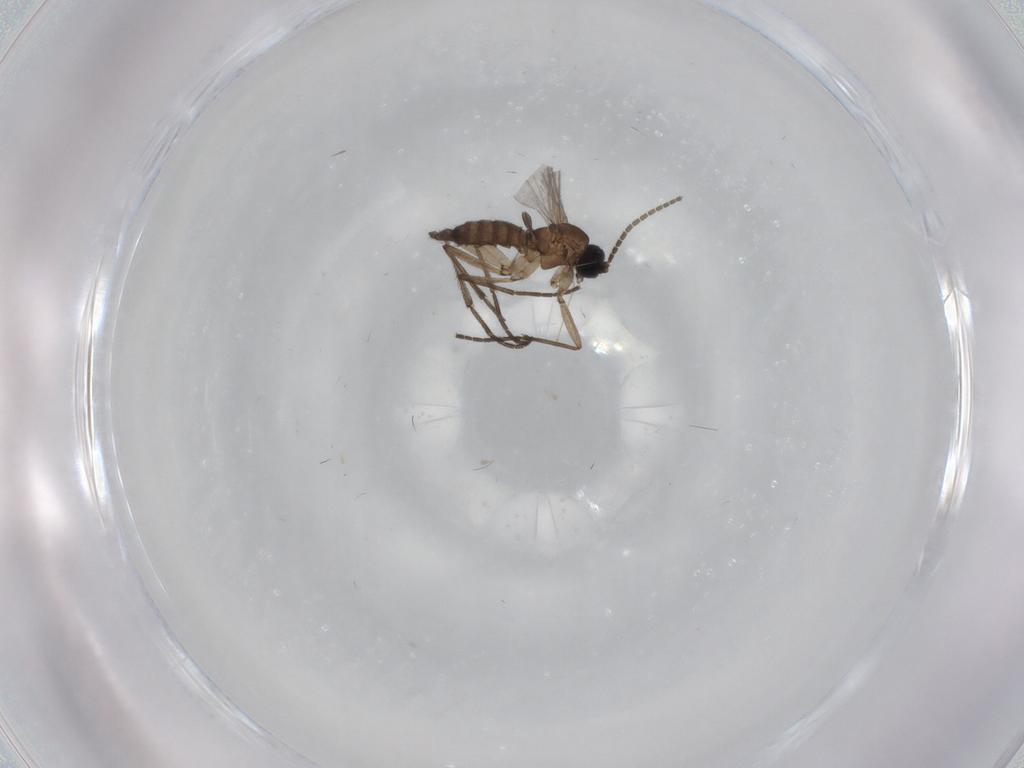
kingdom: Animalia
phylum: Arthropoda
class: Insecta
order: Diptera
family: Sciaridae
